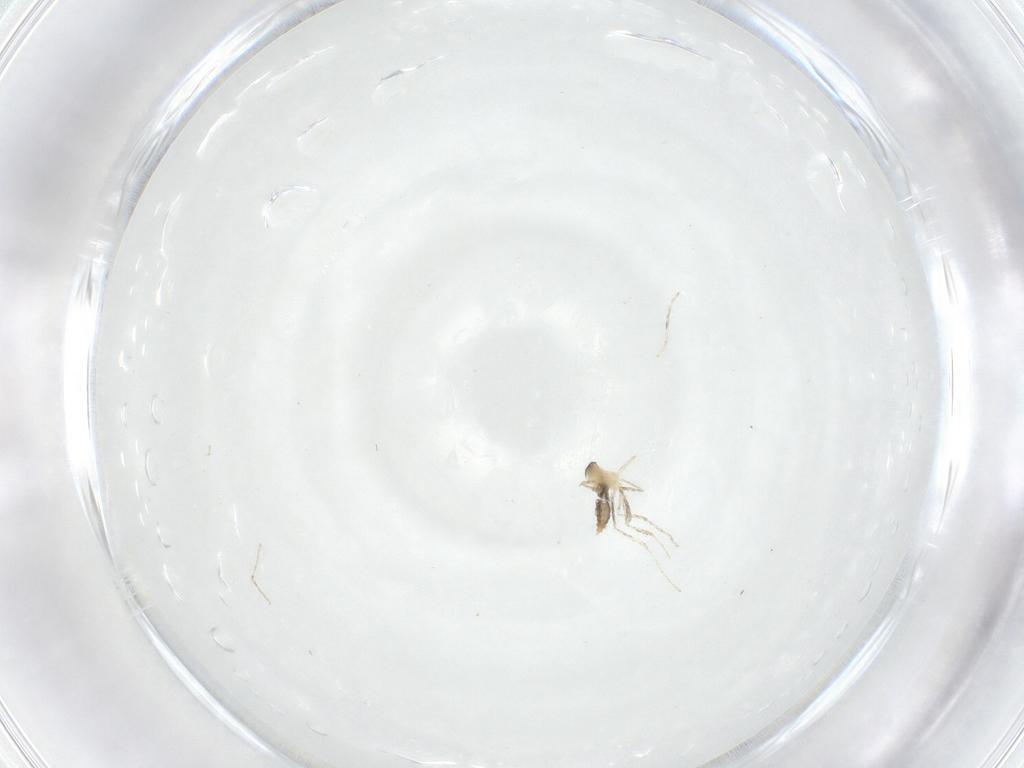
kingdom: Animalia
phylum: Arthropoda
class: Insecta
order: Diptera
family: Cecidomyiidae
